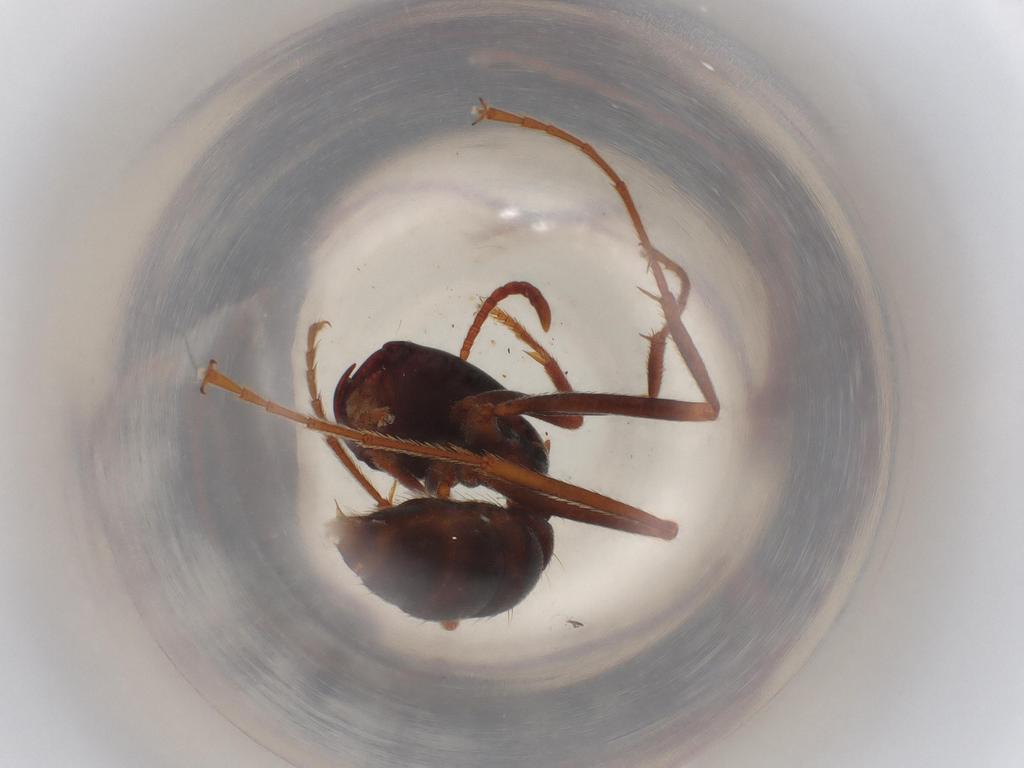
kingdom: Animalia
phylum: Arthropoda
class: Insecta
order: Hymenoptera
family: Formicidae
